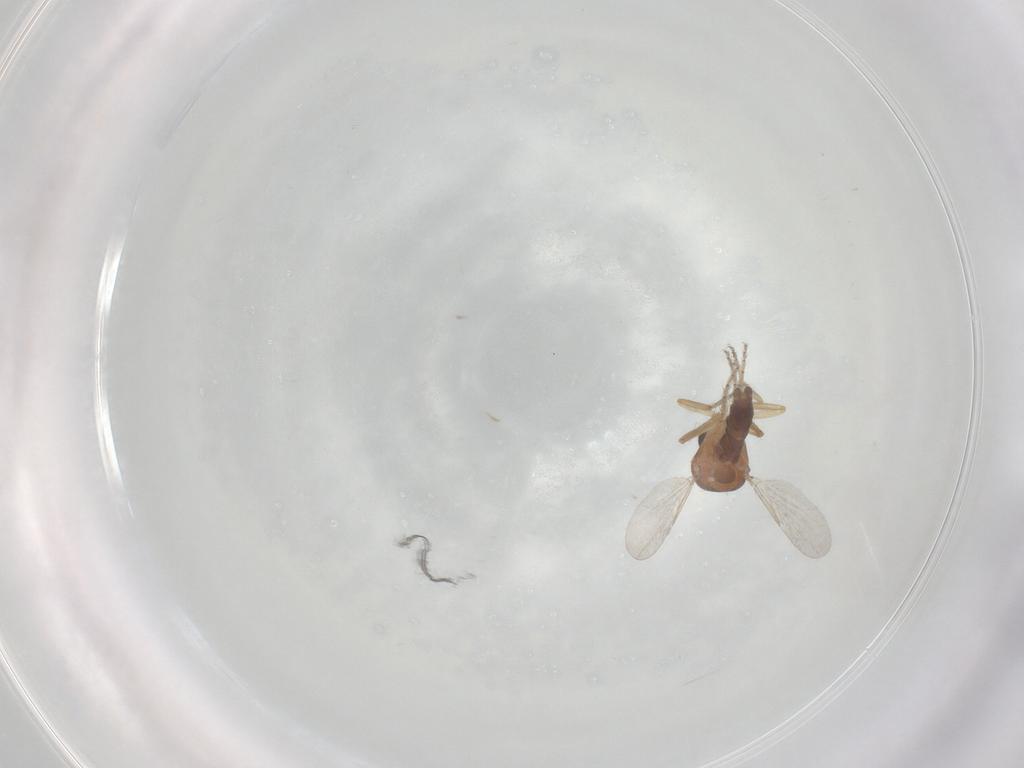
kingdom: Animalia
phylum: Arthropoda
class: Insecta
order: Diptera
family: Ceratopogonidae
